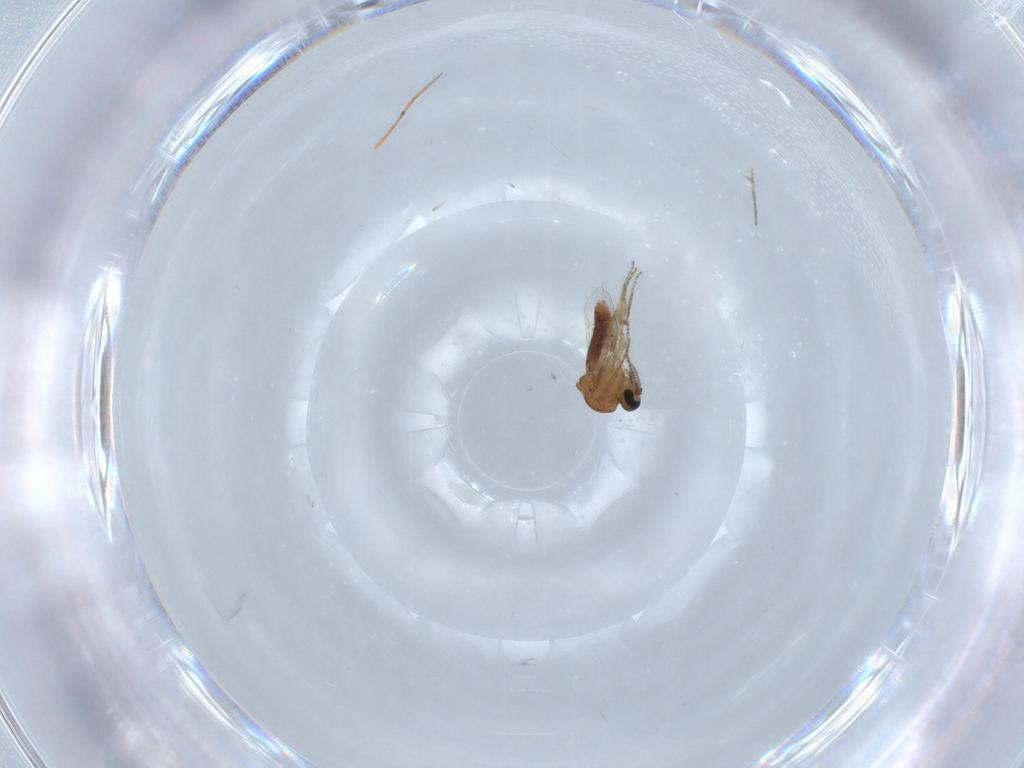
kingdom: Animalia
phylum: Arthropoda
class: Insecta
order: Diptera
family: Ceratopogonidae
